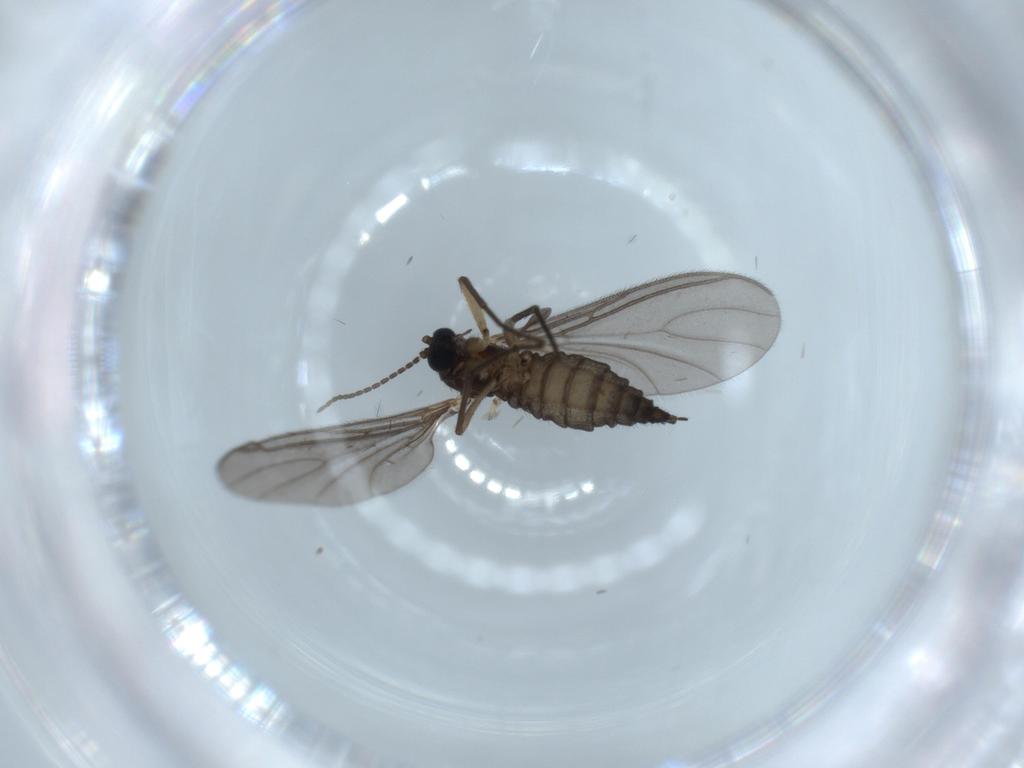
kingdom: Animalia
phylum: Arthropoda
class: Insecta
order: Diptera
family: Sciaridae
